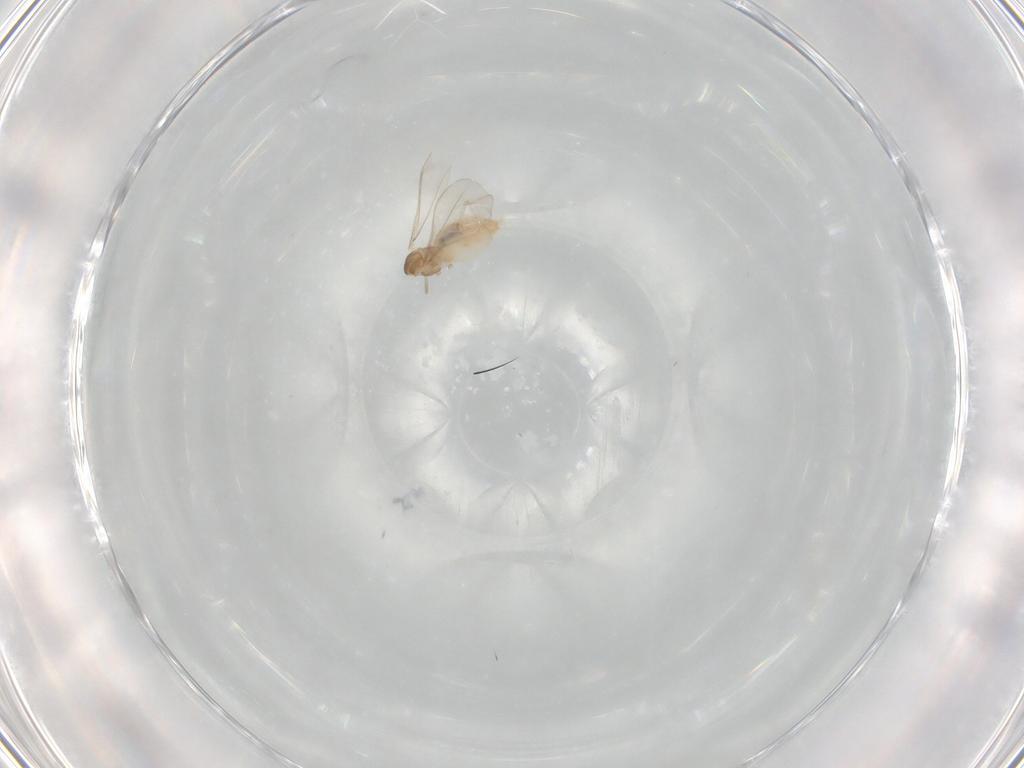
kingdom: Animalia
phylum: Arthropoda
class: Insecta
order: Diptera
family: Cecidomyiidae
